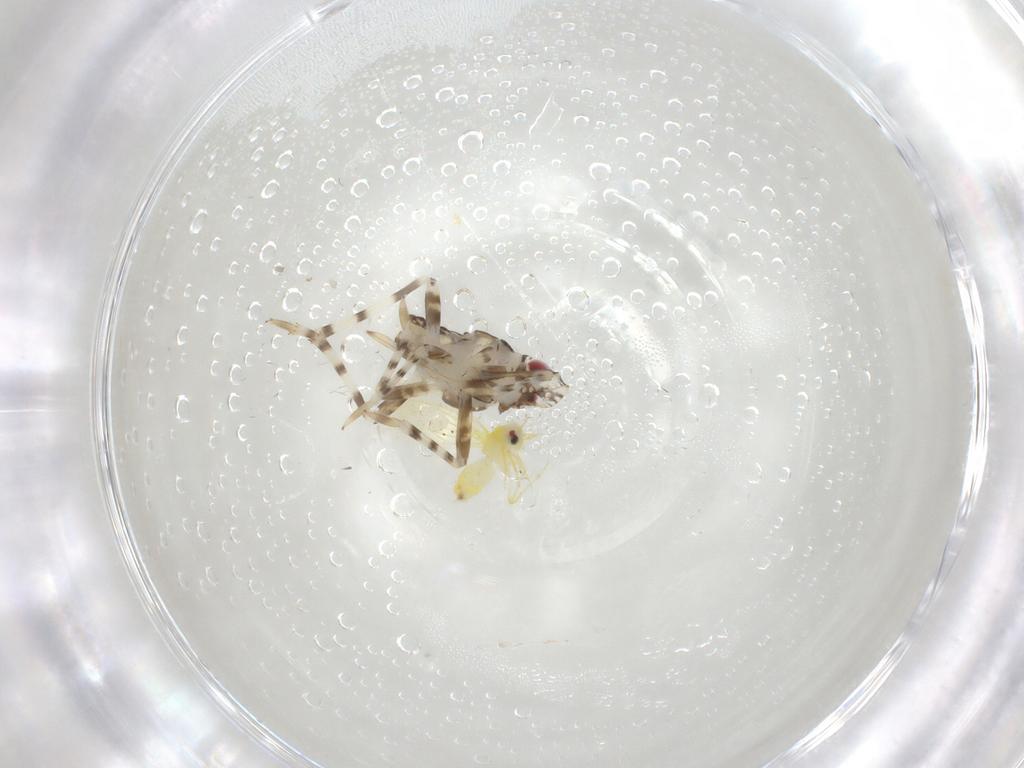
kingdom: Animalia
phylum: Arthropoda
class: Insecta
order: Hemiptera
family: Aleyrodidae
